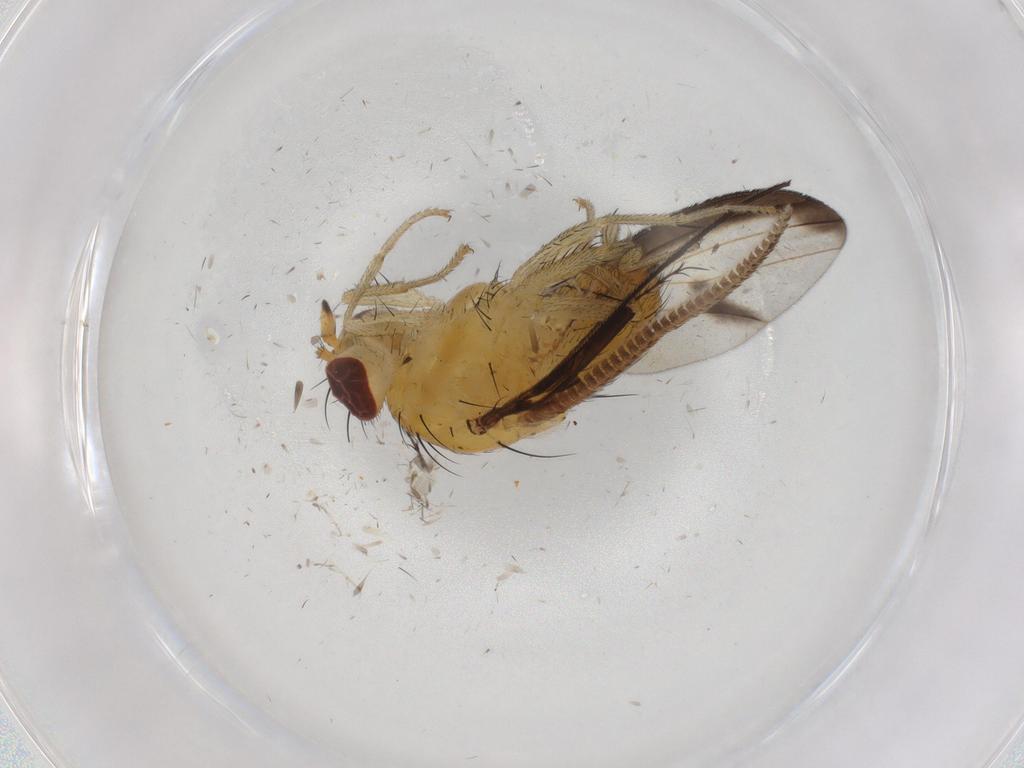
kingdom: Animalia
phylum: Arthropoda
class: Insecta
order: Diptera
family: Lauxaniidae
